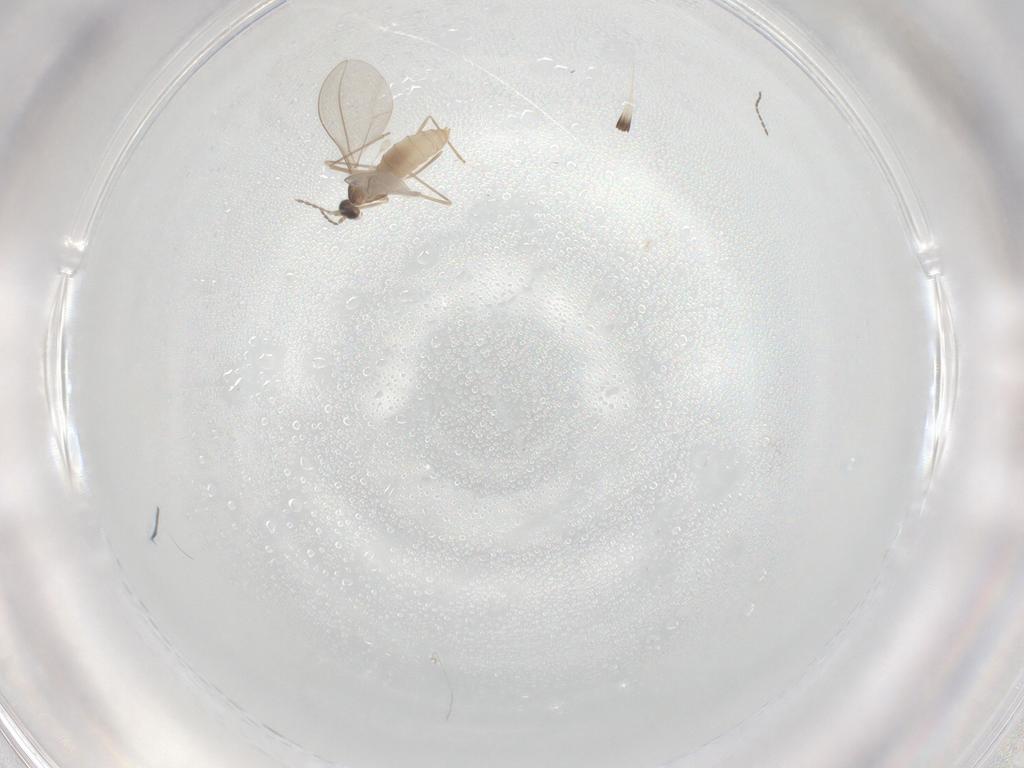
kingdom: Animalia
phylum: Arthropoda
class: Insecta
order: Diptera
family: Cecidomyiidae
